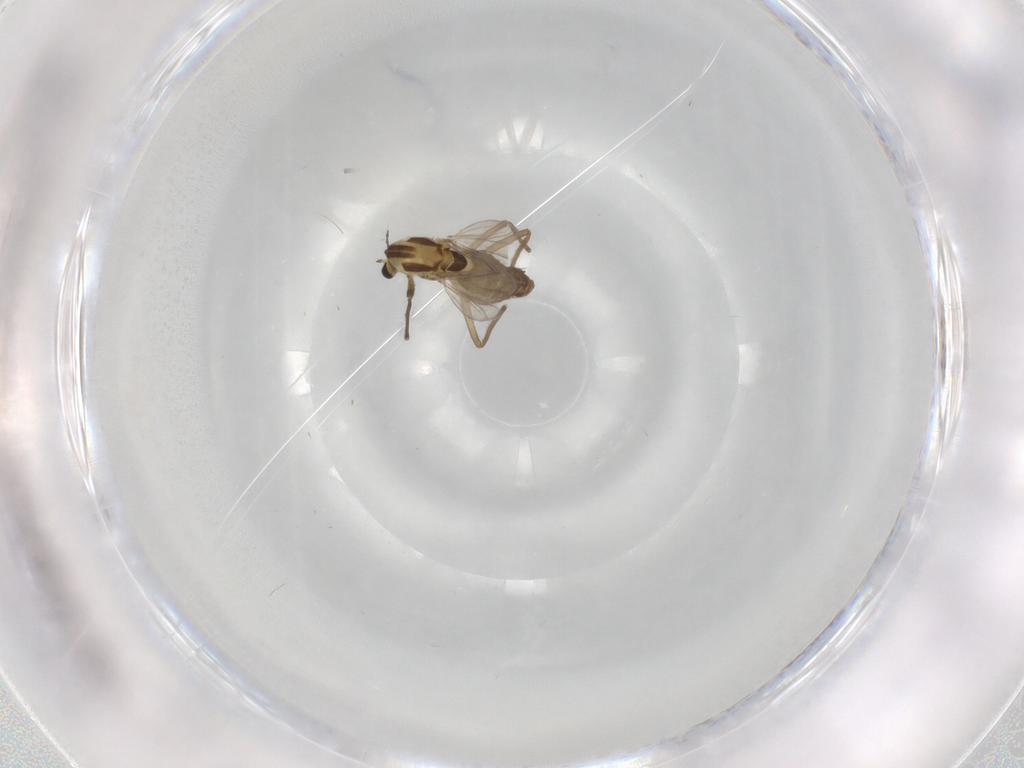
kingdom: Animalia
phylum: Arthropoda
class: Insecta
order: Diptera
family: Chironomidae
